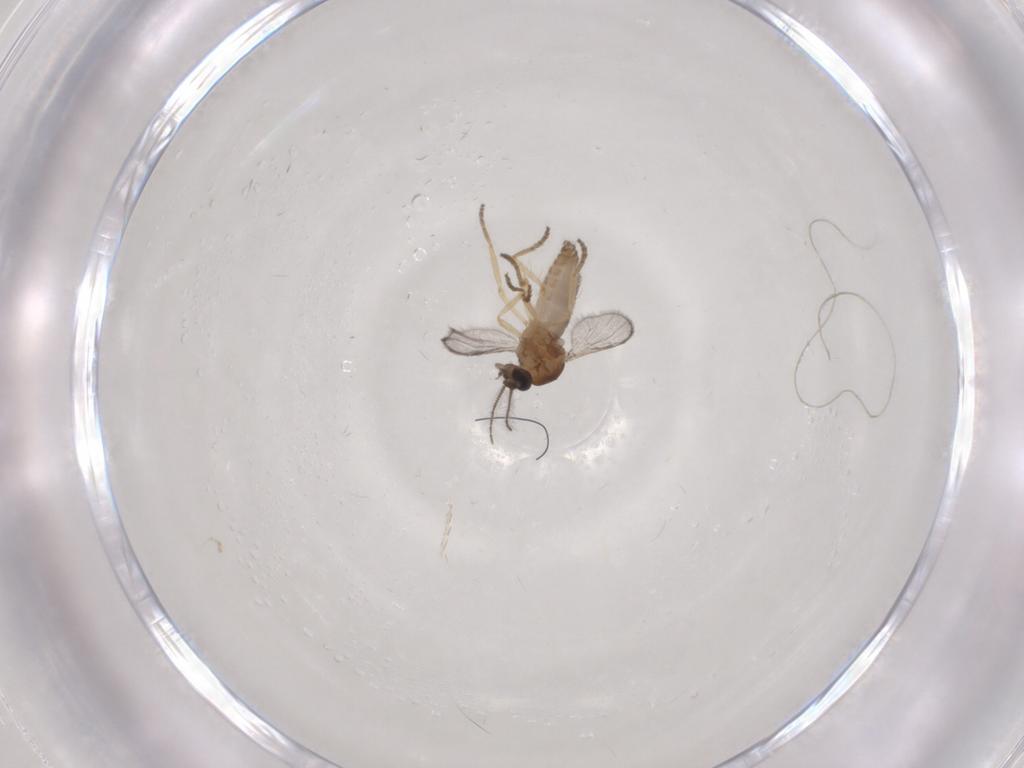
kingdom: Animalia
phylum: Arthropoda
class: Insecta
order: Diptera
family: Ceratopogonidae
